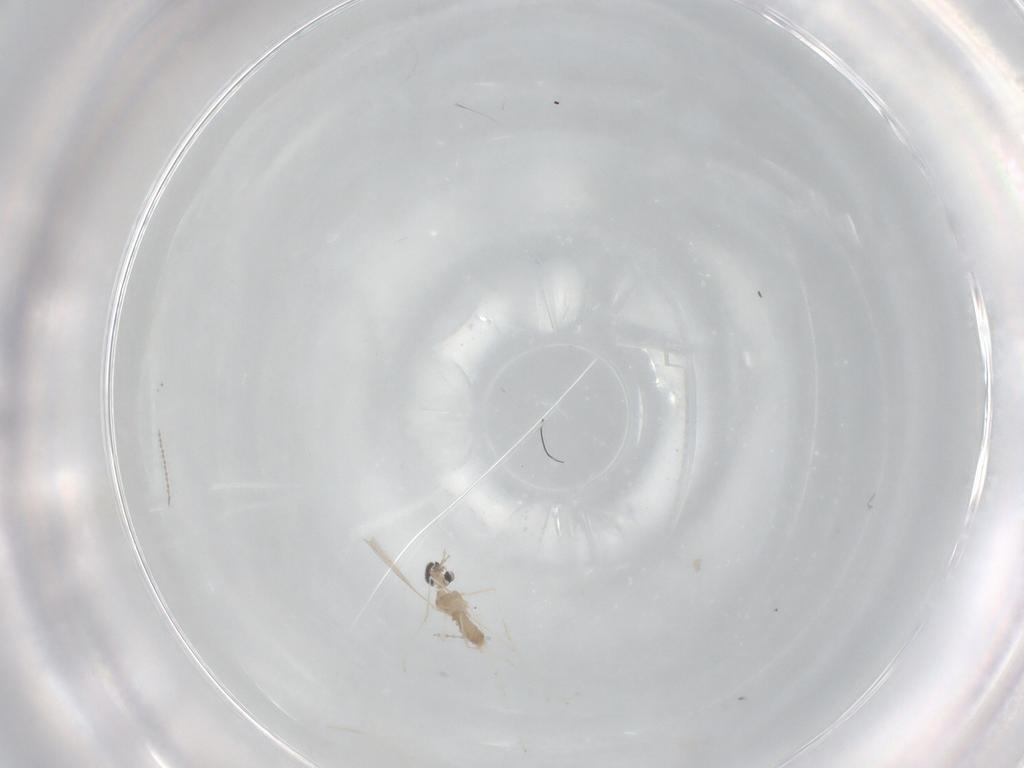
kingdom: Animalia
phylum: Arthropoda
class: Insecta
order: Diptera
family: Cecidomyiidae
